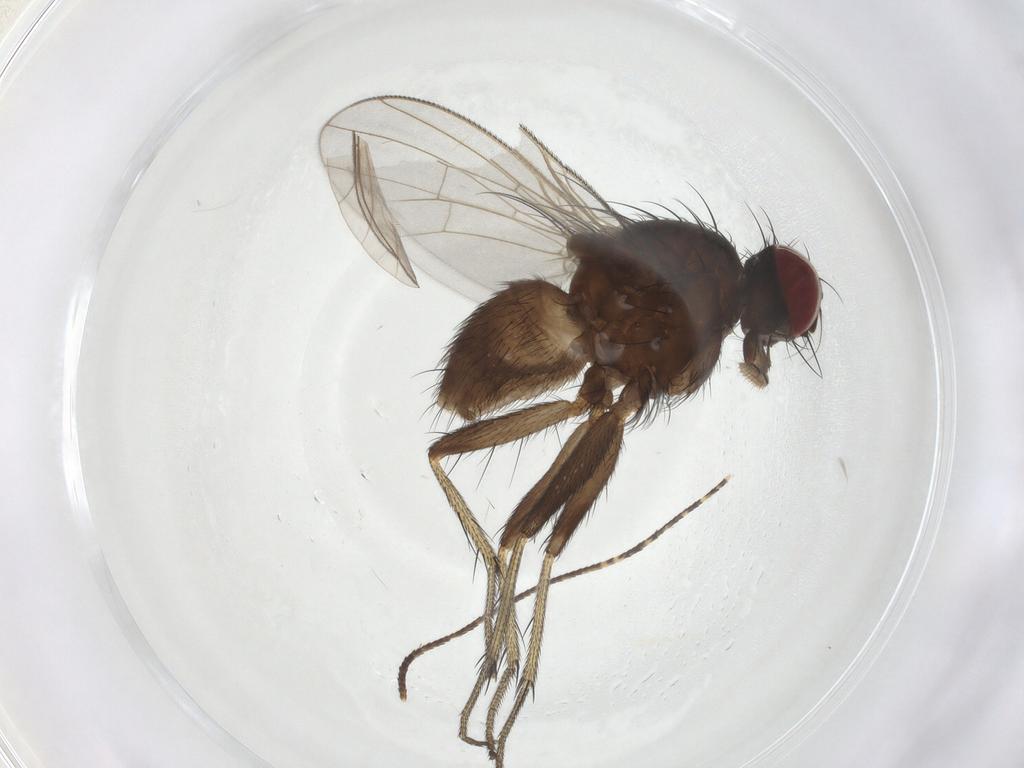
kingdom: Animalia
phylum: Arthropoda
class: Insecta
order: Diptera
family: Muscidae
